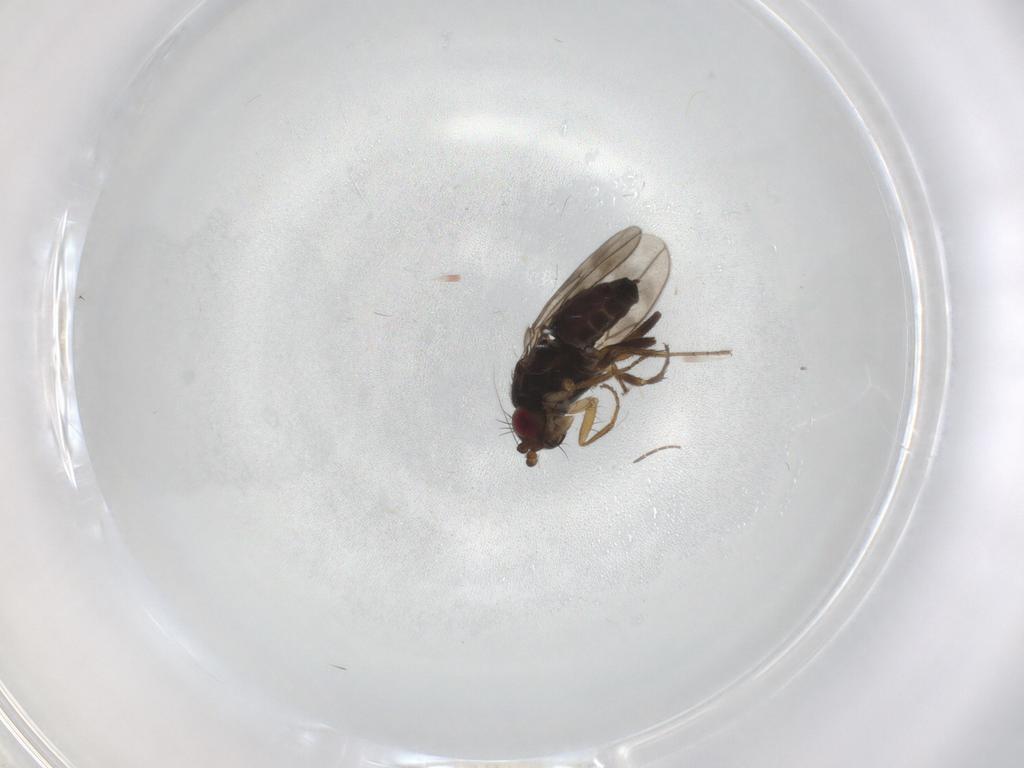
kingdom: Animalia
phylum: Arthropoda
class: Insecta
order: Diptera
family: Sphaeroceridae
